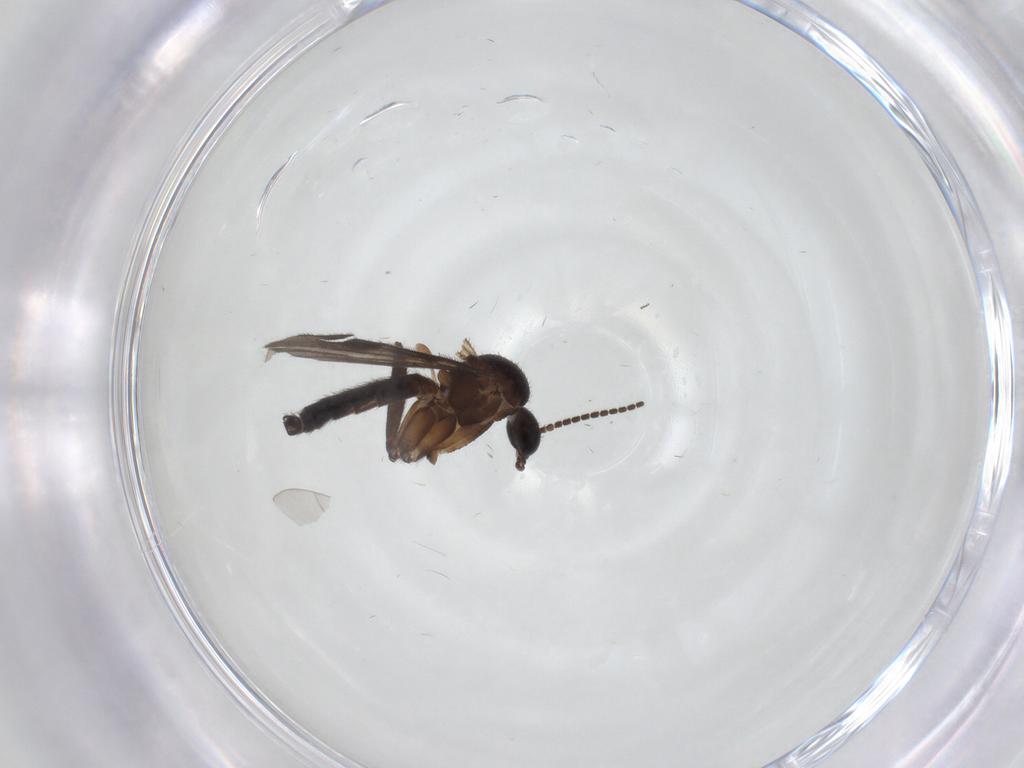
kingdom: Animalia
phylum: Arthropoda
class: Insecta
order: Diptera
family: Mycetophilidae
